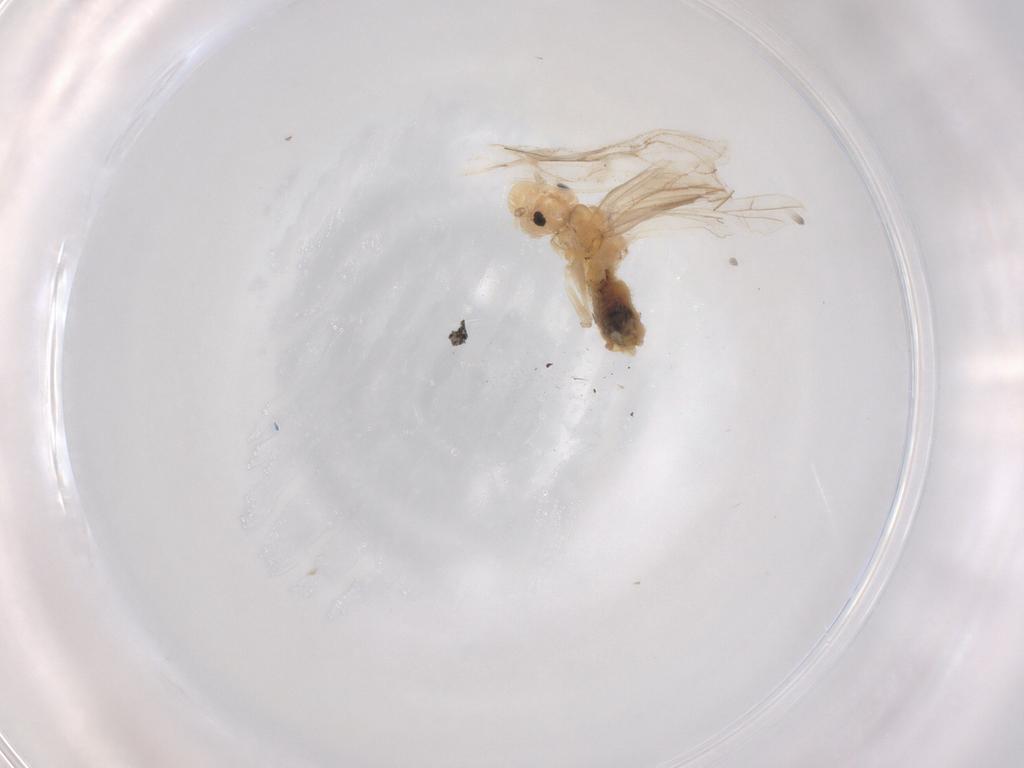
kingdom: Animalia
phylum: Arthropoda
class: Insecta
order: Psocodea
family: Caeciliusidae
